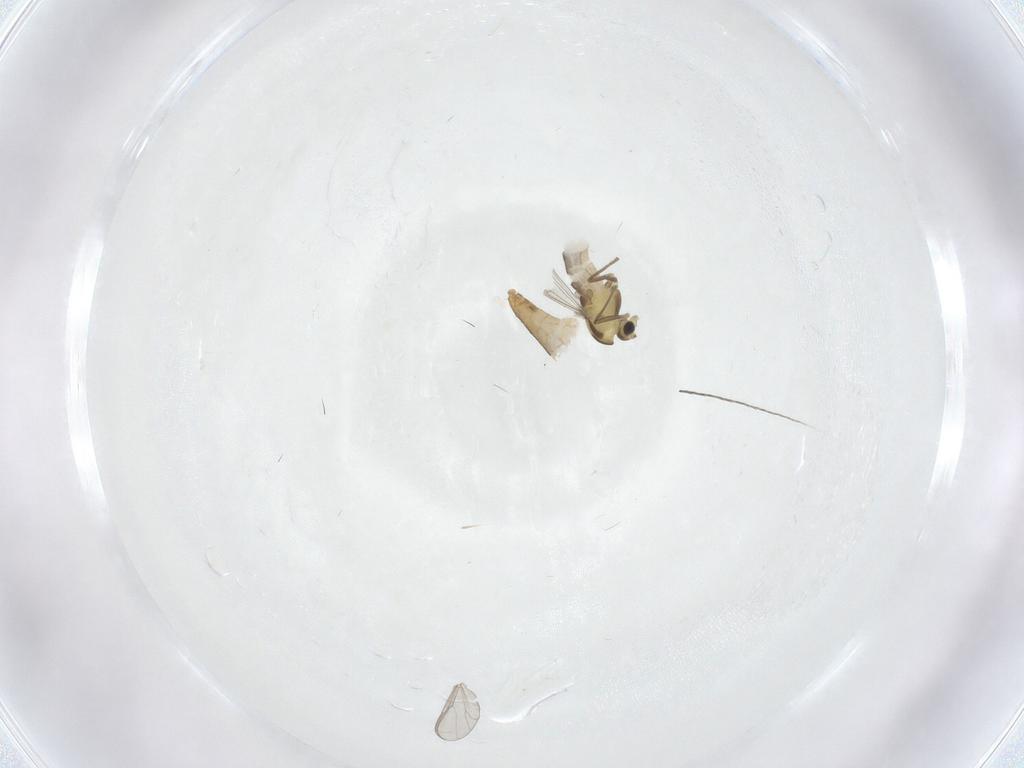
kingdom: Animalia
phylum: Arthropoda
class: Insecta
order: Diptera
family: Chironomidae
